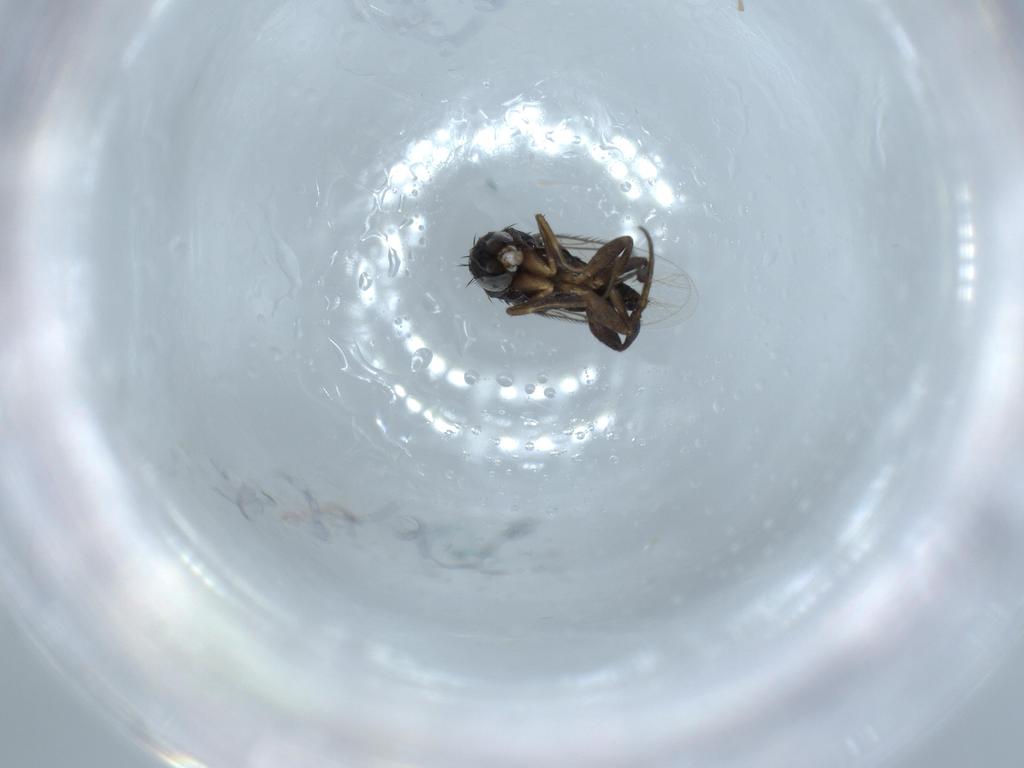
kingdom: Animalia
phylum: Arthropoda
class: Insecta
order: Diptera
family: Phoridae
